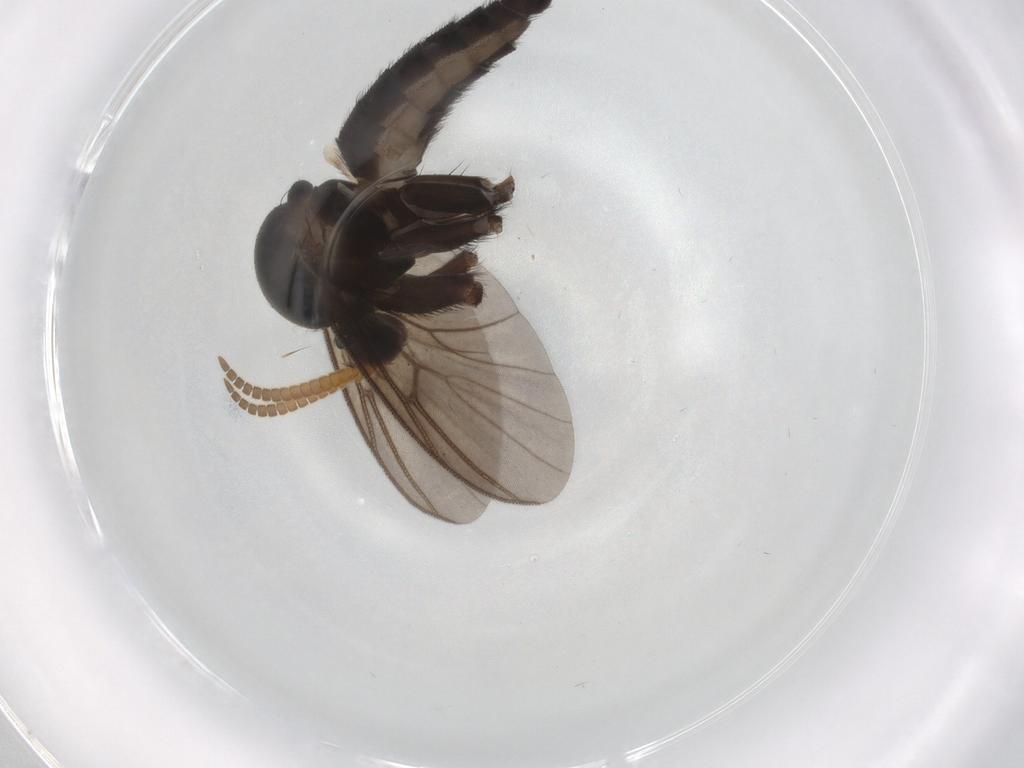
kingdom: Animalia
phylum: Arthropoda
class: Insecta
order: Diptera
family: Phoridae
